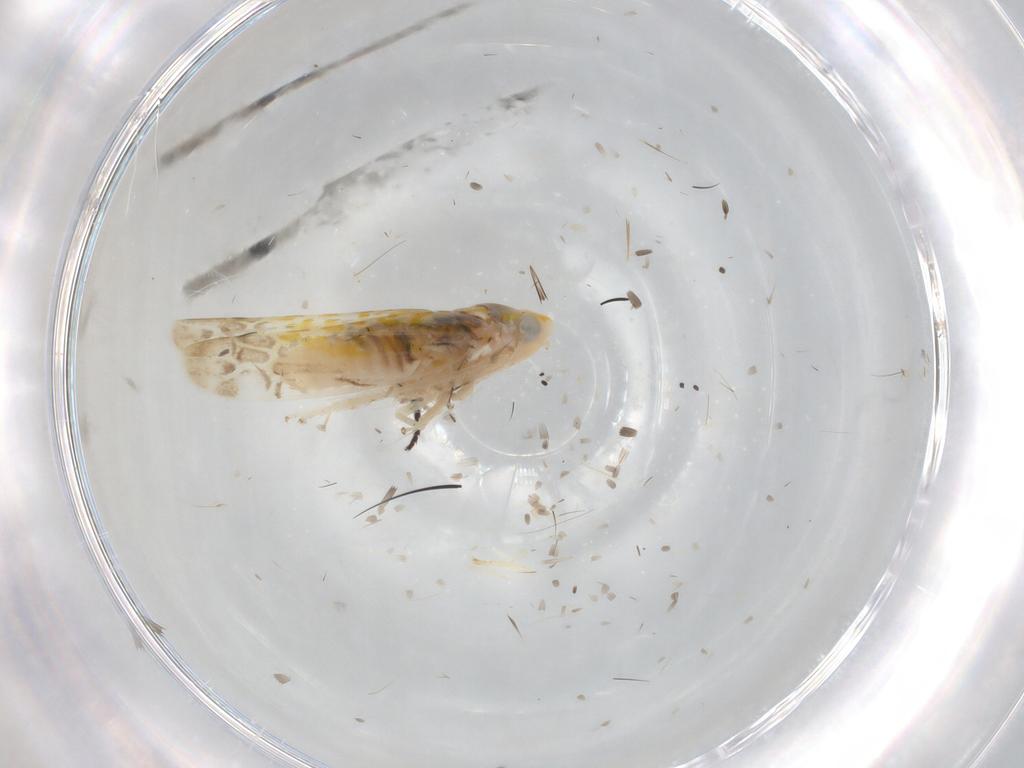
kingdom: Animalia
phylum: Arthropoda
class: Insecta
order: Hemiptera
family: Cicadellidae
